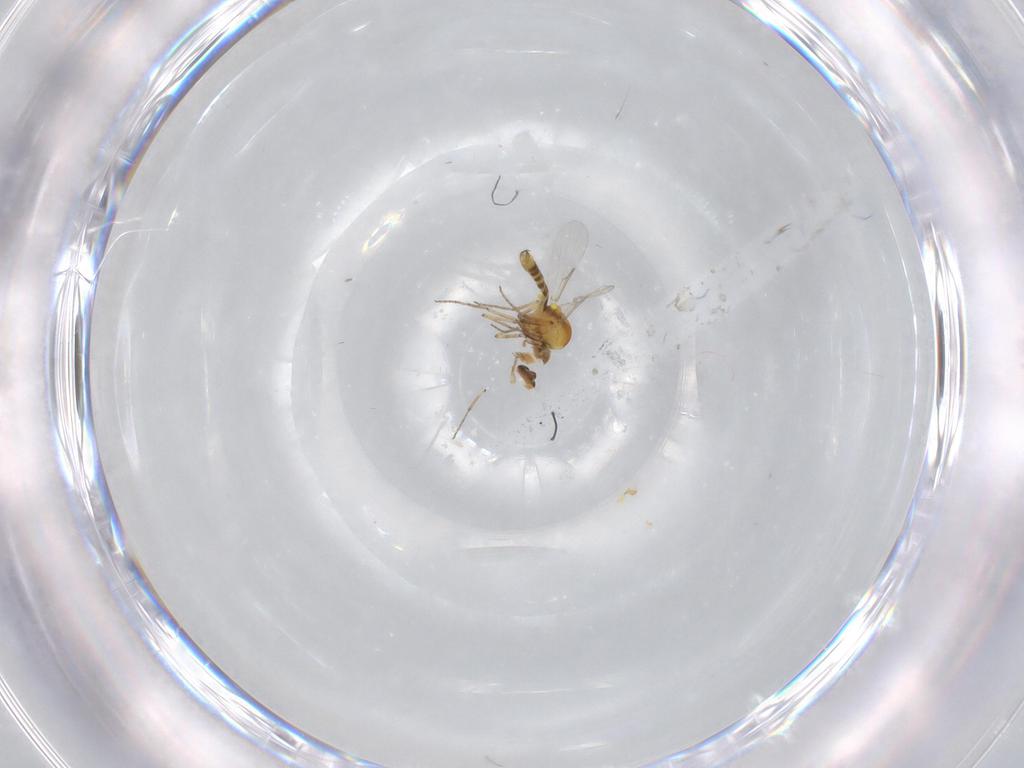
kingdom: Animalia
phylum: Arthropoda
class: Insecta
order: Diptera
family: Ceratopogonidae
